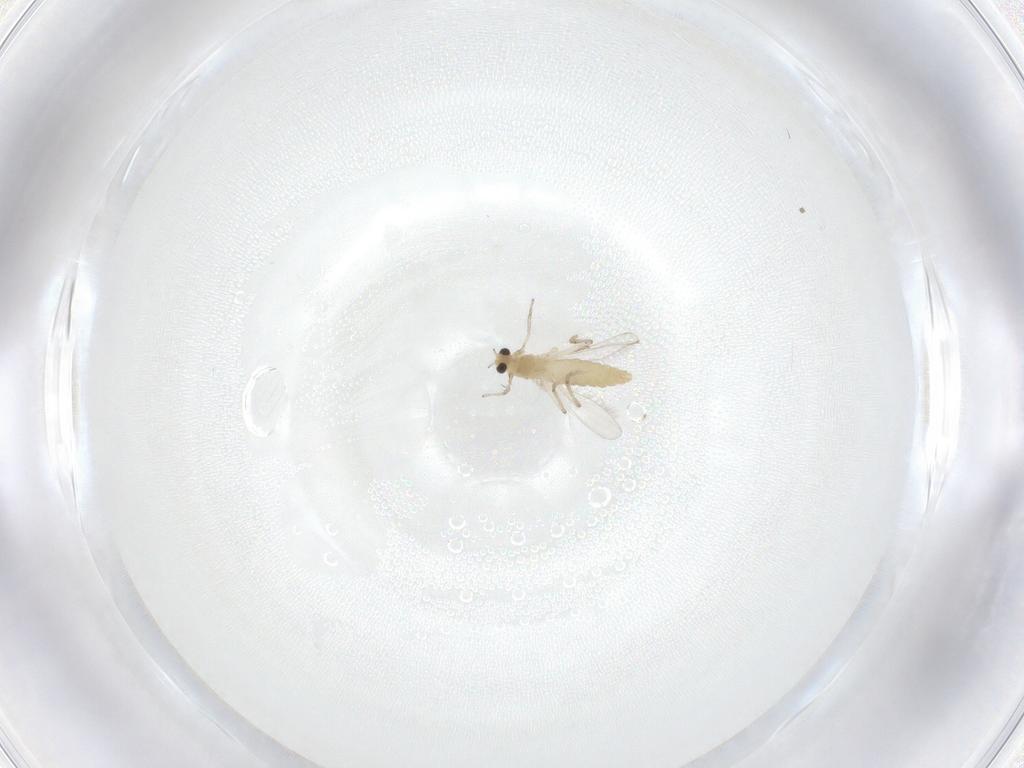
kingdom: Animalia
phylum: Arthropoda
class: Insecta
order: Diptera
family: Chironomidae
